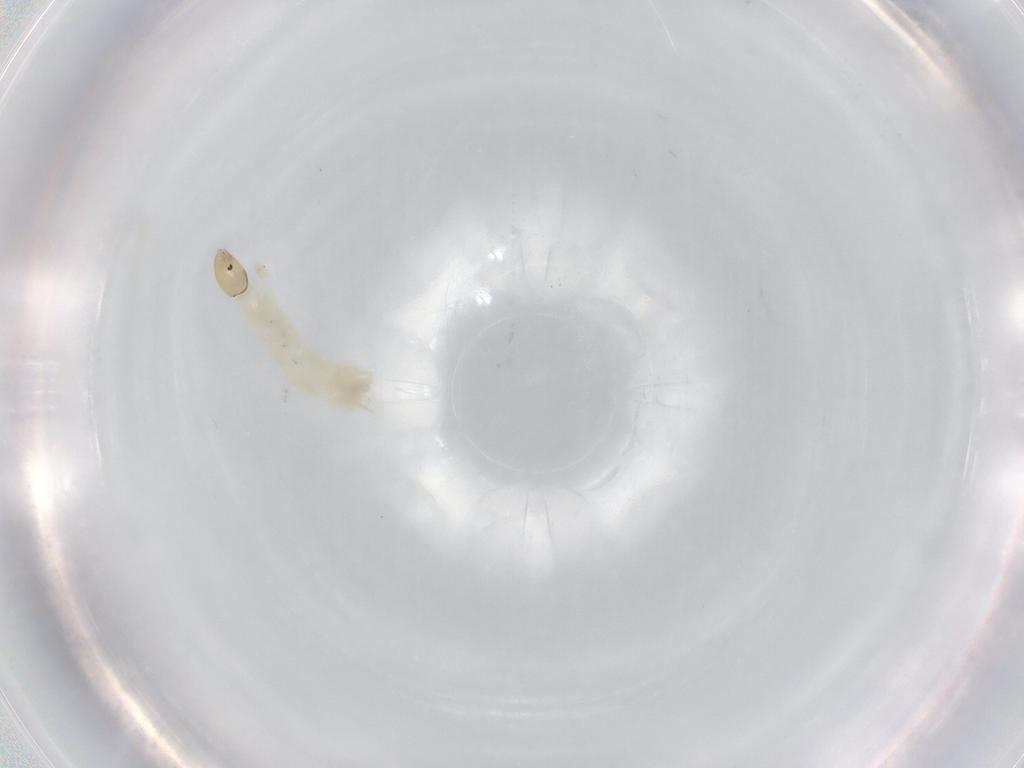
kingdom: Animalia
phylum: Arthropoda
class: Insecta
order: Diptera
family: Chironomidae
